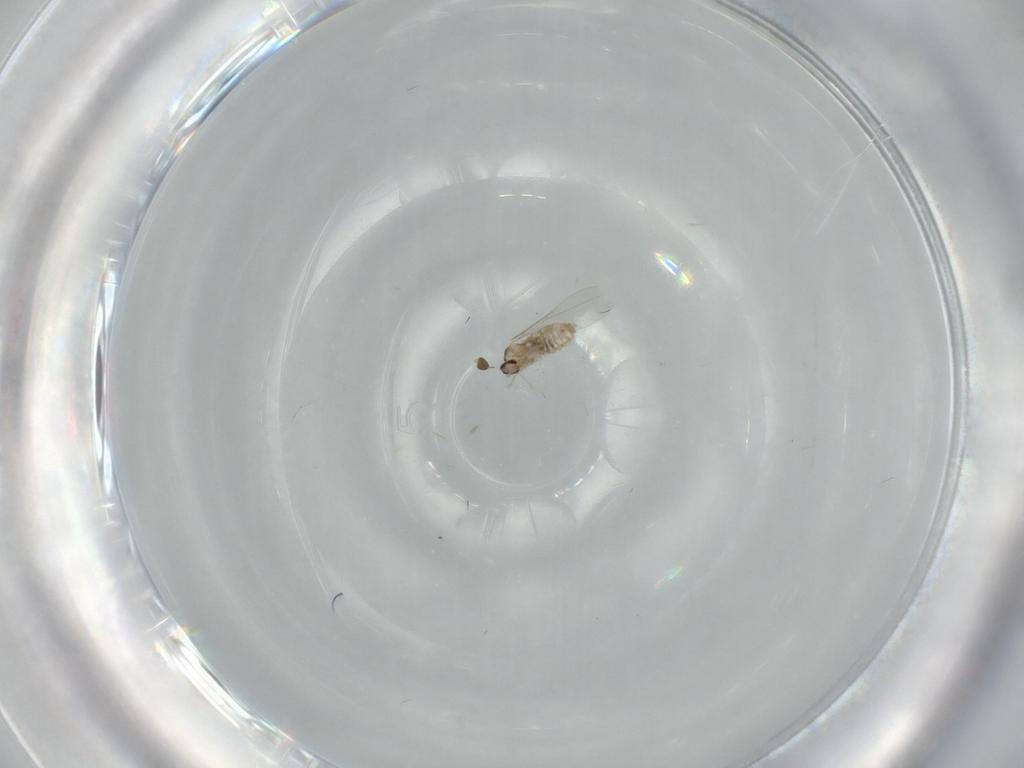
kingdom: Animalia
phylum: Arthropoda
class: Insecta
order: Diptera
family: Cecidomyiidae
